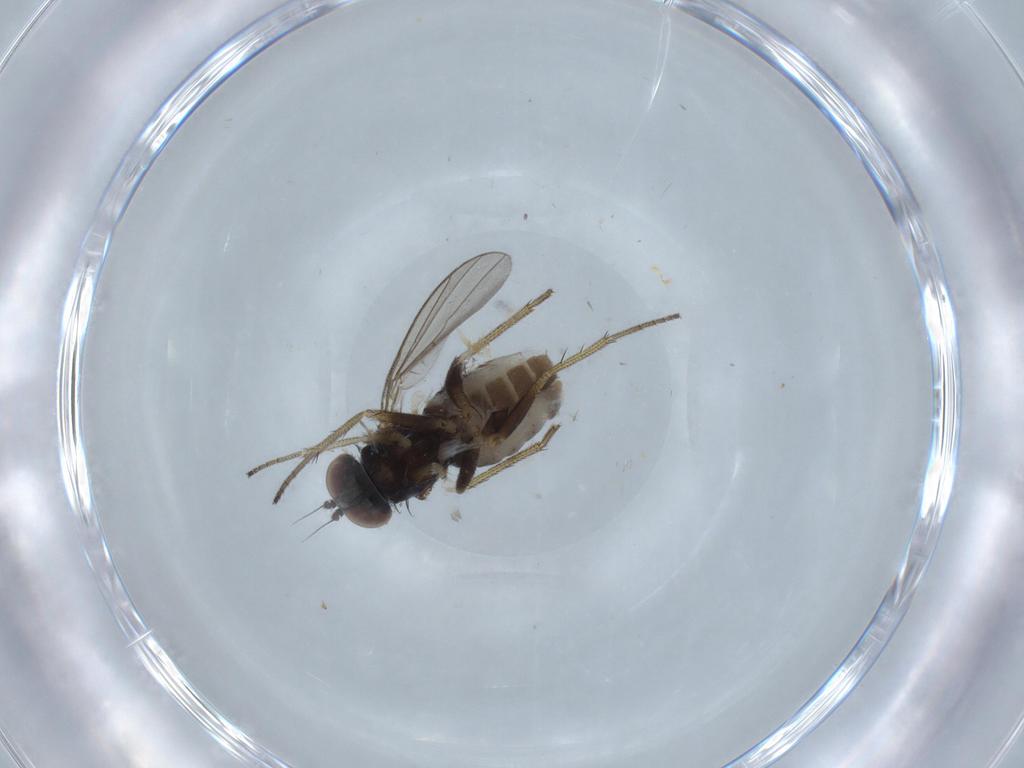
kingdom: Animalia
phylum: Arthropoda
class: Insecta
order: Diptera
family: Dolichopodidae
